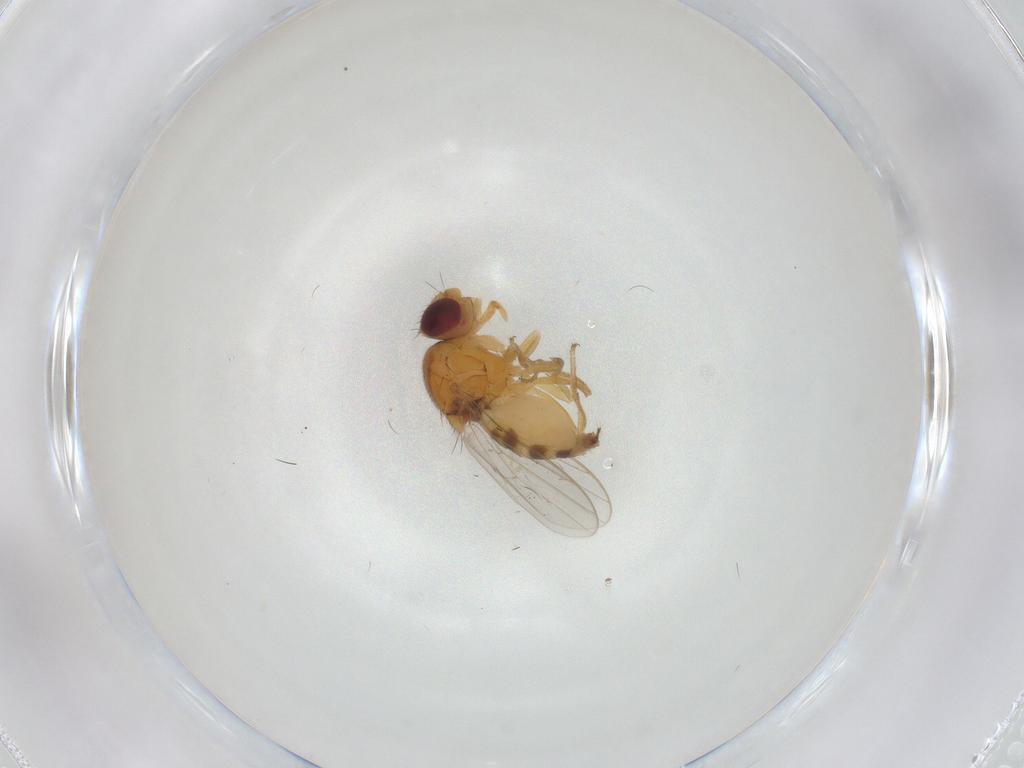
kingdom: Animalia
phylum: Arthropoda
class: Insecta
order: Diptera
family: Chloropidae
